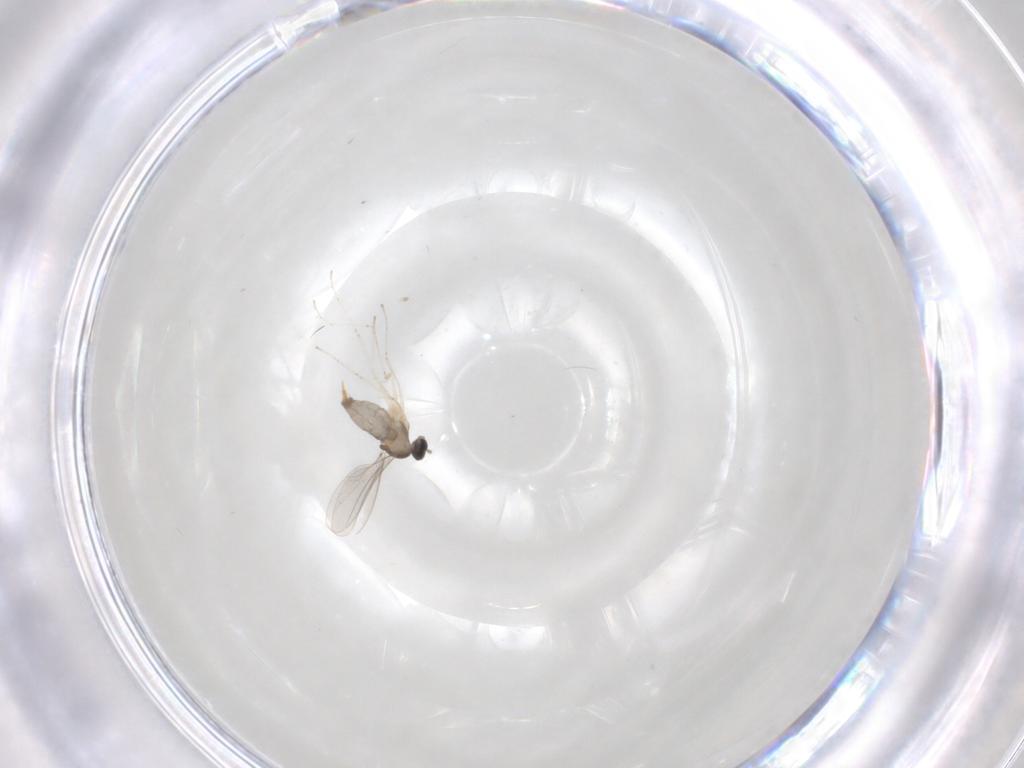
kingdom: Animalia
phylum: Arthropoda
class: Insecta
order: Diptera
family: Cecidomyiidae
